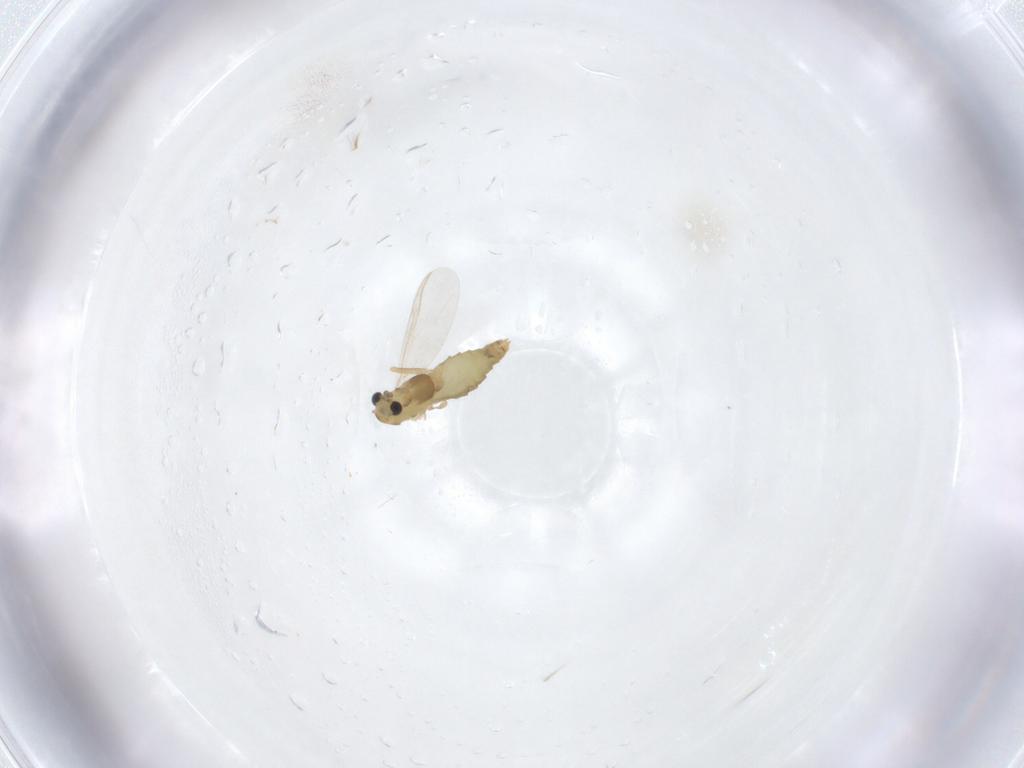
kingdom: Animalia
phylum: Arthropoda
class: Insecta
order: Diptera
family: Chironomidae
